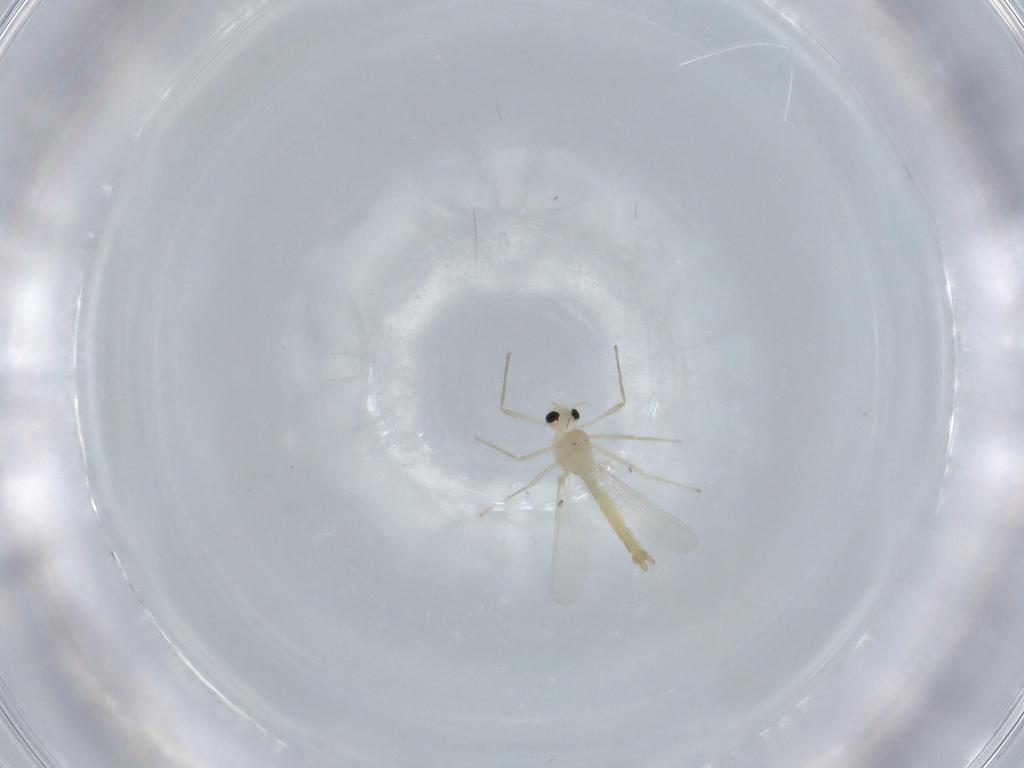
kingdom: Animalia
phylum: Arthropoda
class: Insecta
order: Diptera
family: Chironomidae
